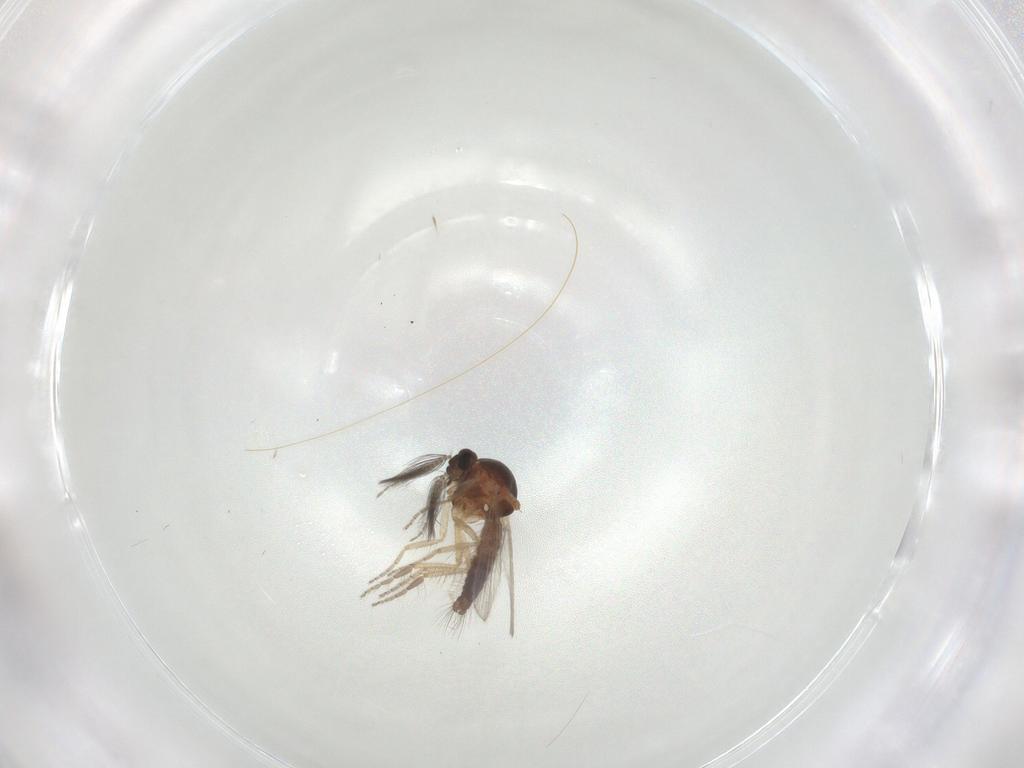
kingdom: Animalia
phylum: Arthropoda
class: Insecta
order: Diptera
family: Ceratopogonidae
